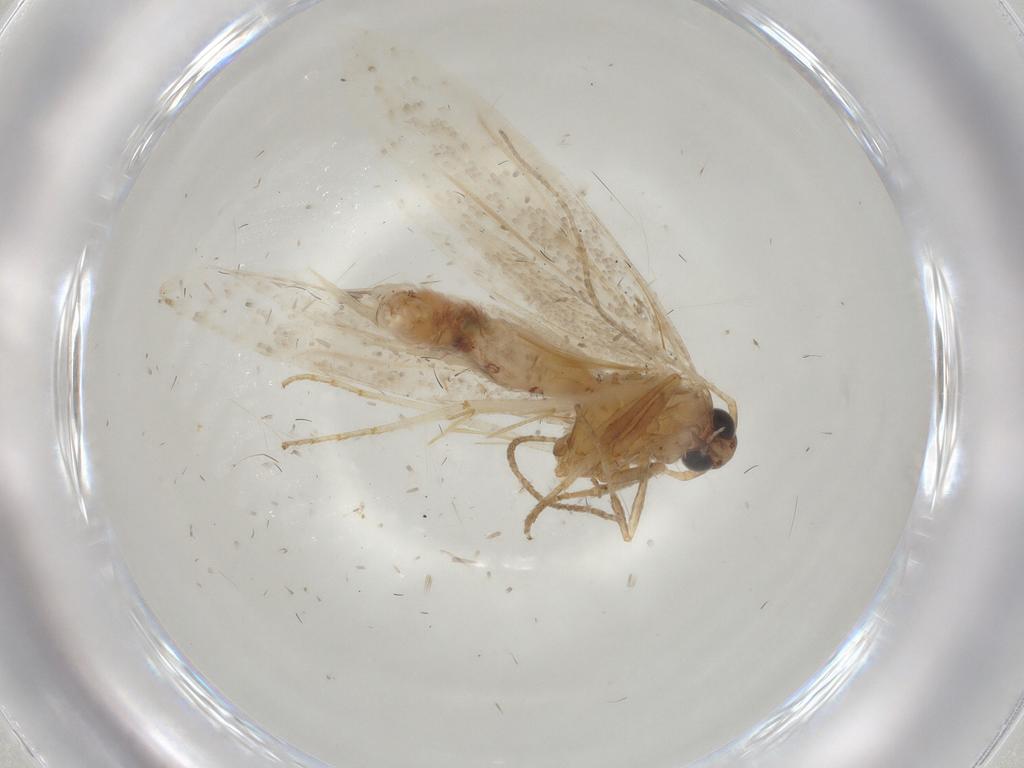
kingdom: Animalia
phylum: Arthropoda
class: Insecta
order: Lepidoptera
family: Gelechiidae
